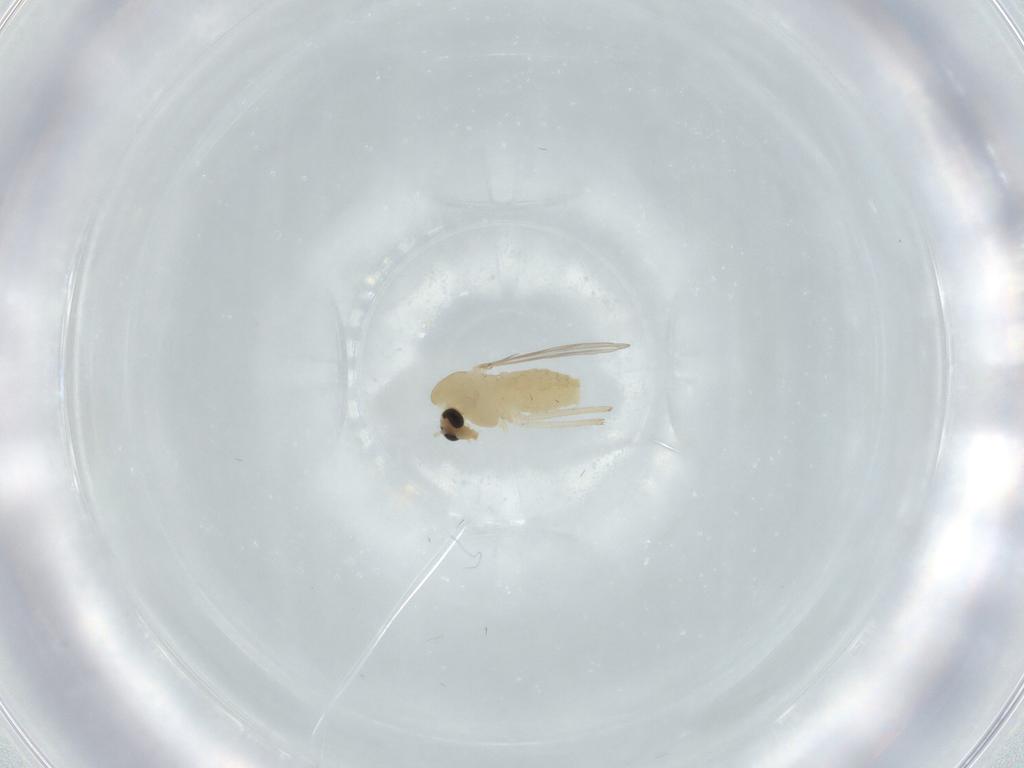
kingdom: Animalia
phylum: Arthropoda
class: Insecta
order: Diptera
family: Chironomidae
